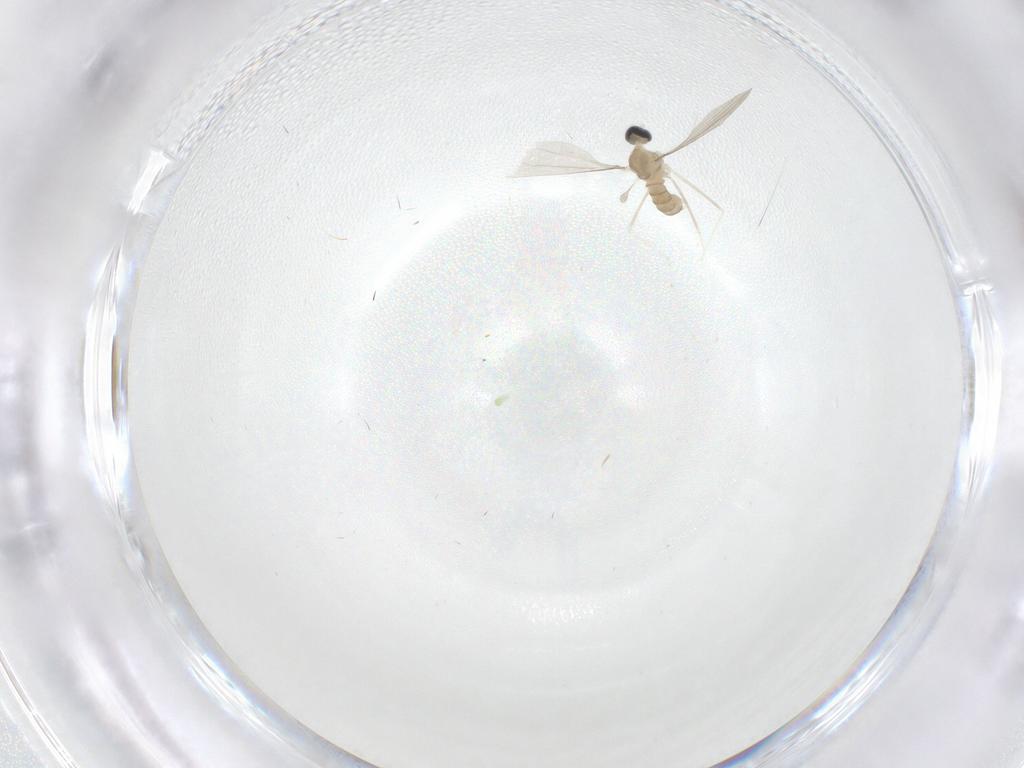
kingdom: Animalia
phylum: Arthropoda
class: Insecta
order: Diptera
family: Cecidomyiidae
